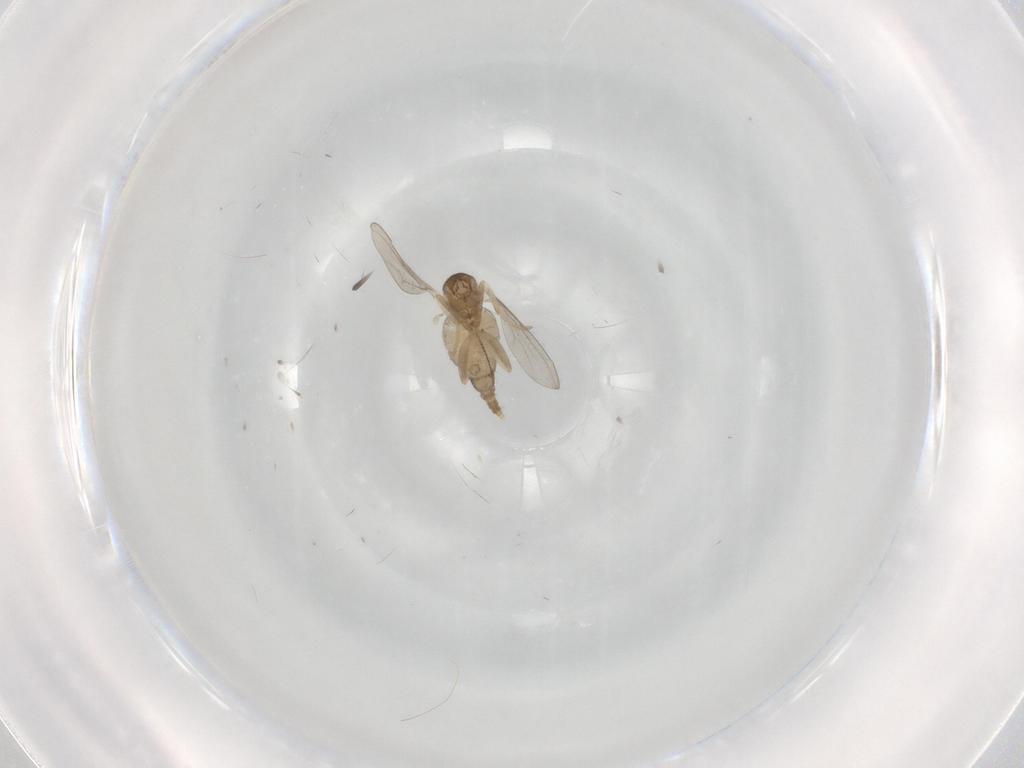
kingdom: Animalia
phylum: Arthropoda
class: Insecta
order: Diptera
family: Cecidomyiidae
